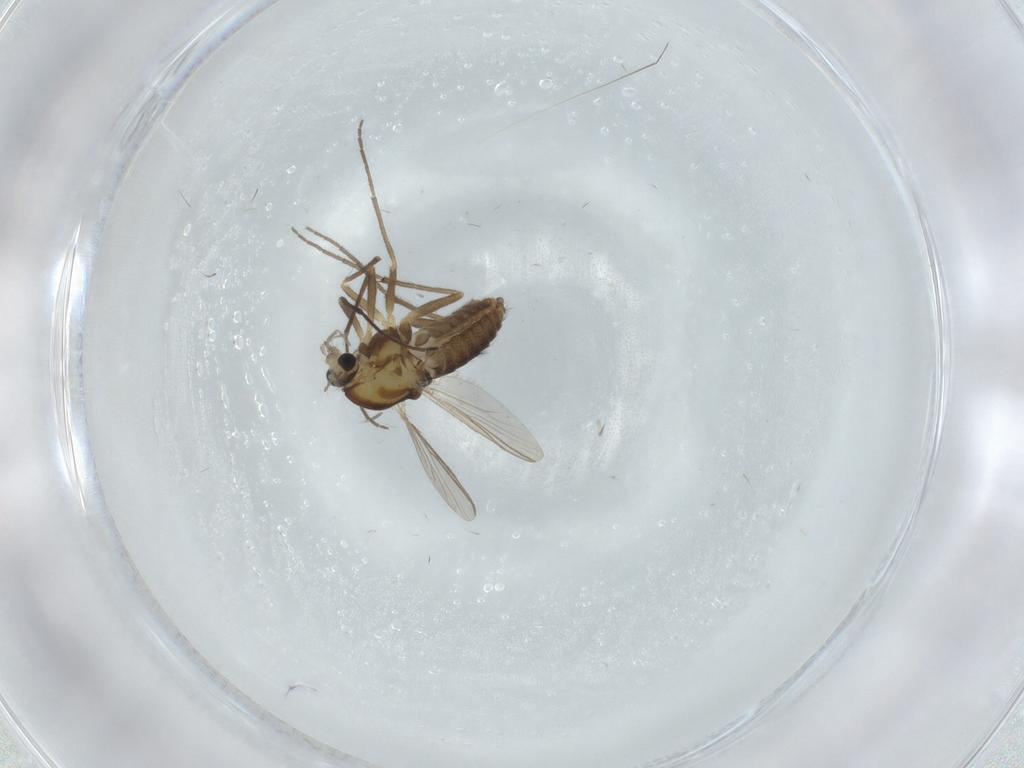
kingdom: Animalia
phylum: Arthropoda
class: Insecta
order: Diptera
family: Chironomidae
